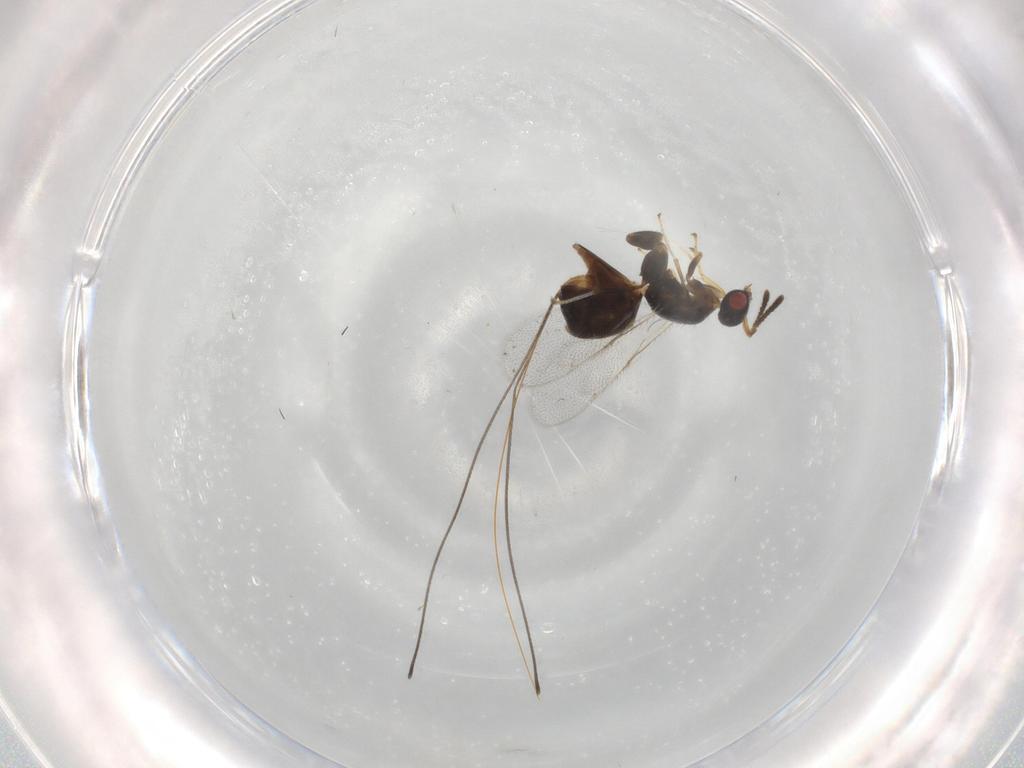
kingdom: Animalia
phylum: Arthropoda
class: Insecta
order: Hymenoptera
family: Torymidae
